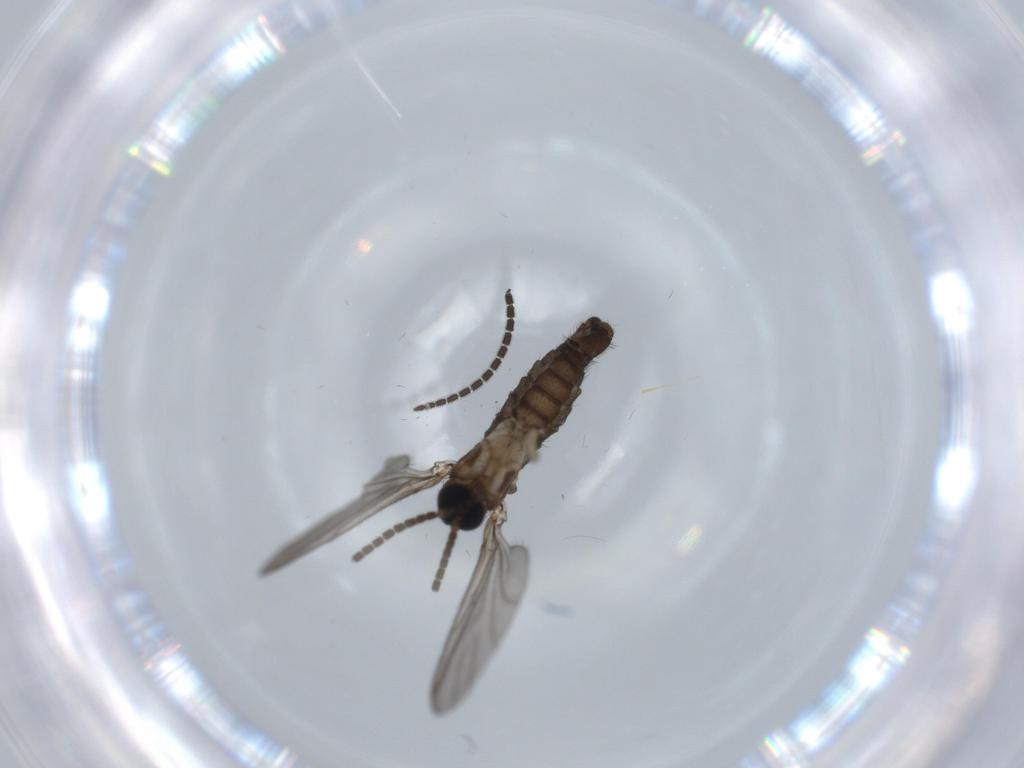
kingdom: Animalia
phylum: Arthropoda
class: Insecta
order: Diptera
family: Sciaridae
